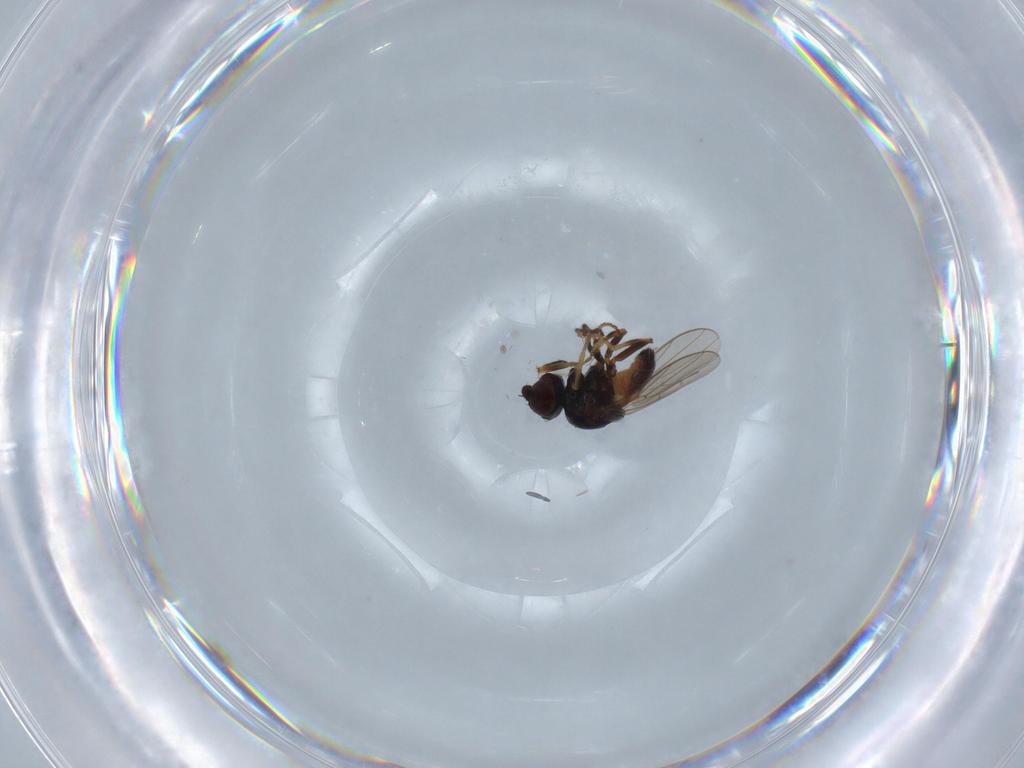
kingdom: Animalia
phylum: Arthropoda
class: Insecta
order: Diptera
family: Chloropidae
